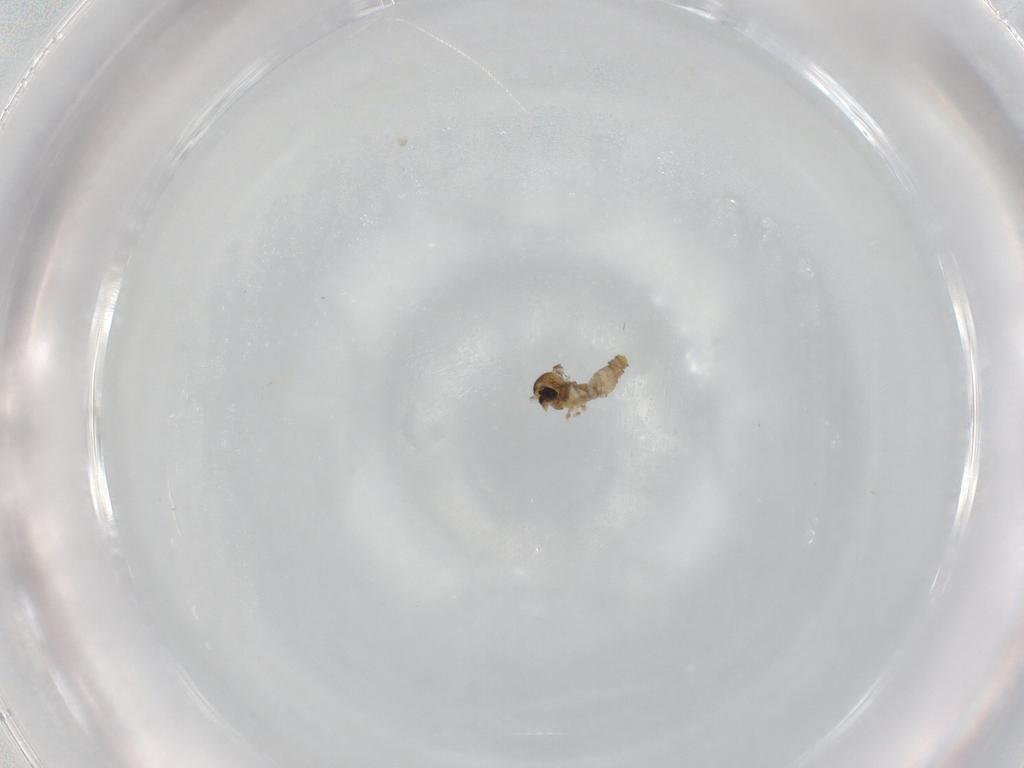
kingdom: Animalia
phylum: Arthropoda
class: Insecta
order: Diptera
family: Cecidomyiidae
